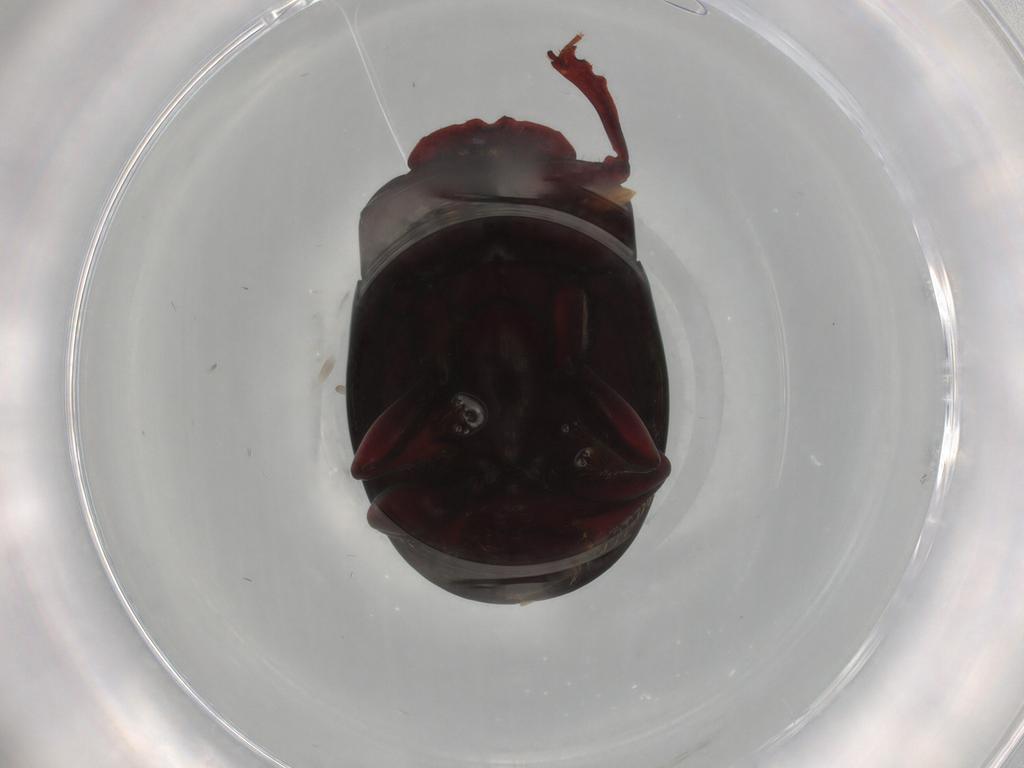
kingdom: Animalia
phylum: Arthropoda
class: Insecta
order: Coleoptera
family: Scarabaeidae
